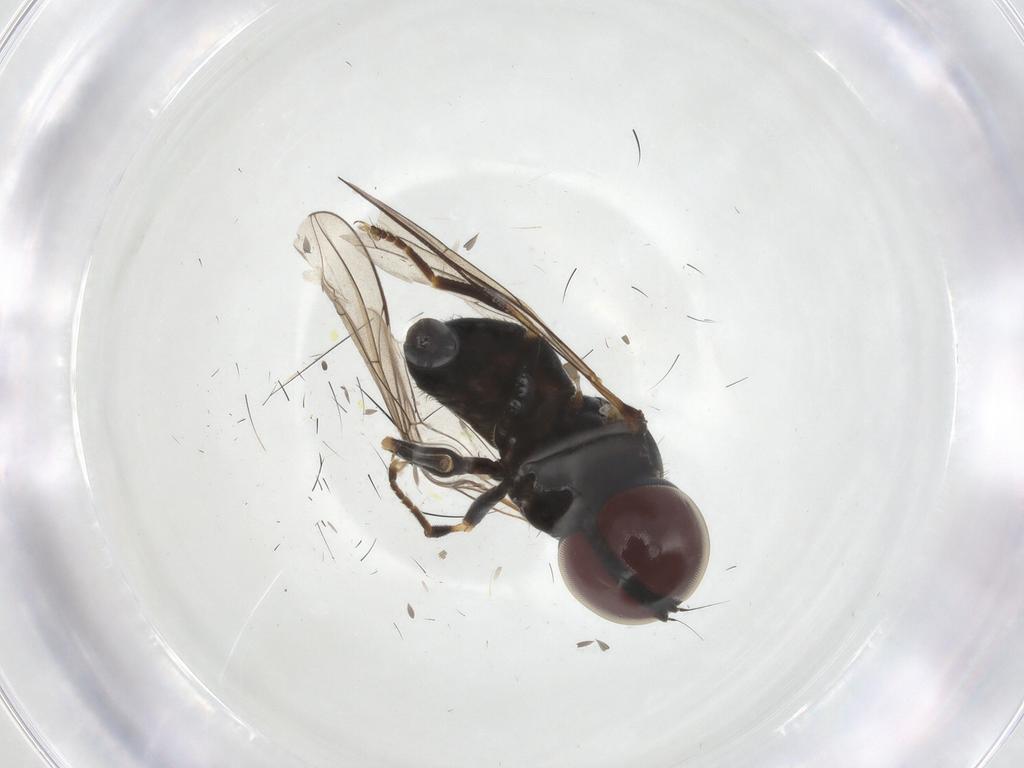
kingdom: Animalia
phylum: Arthropoda
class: Insecta
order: Diptera
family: Pipunculidae
